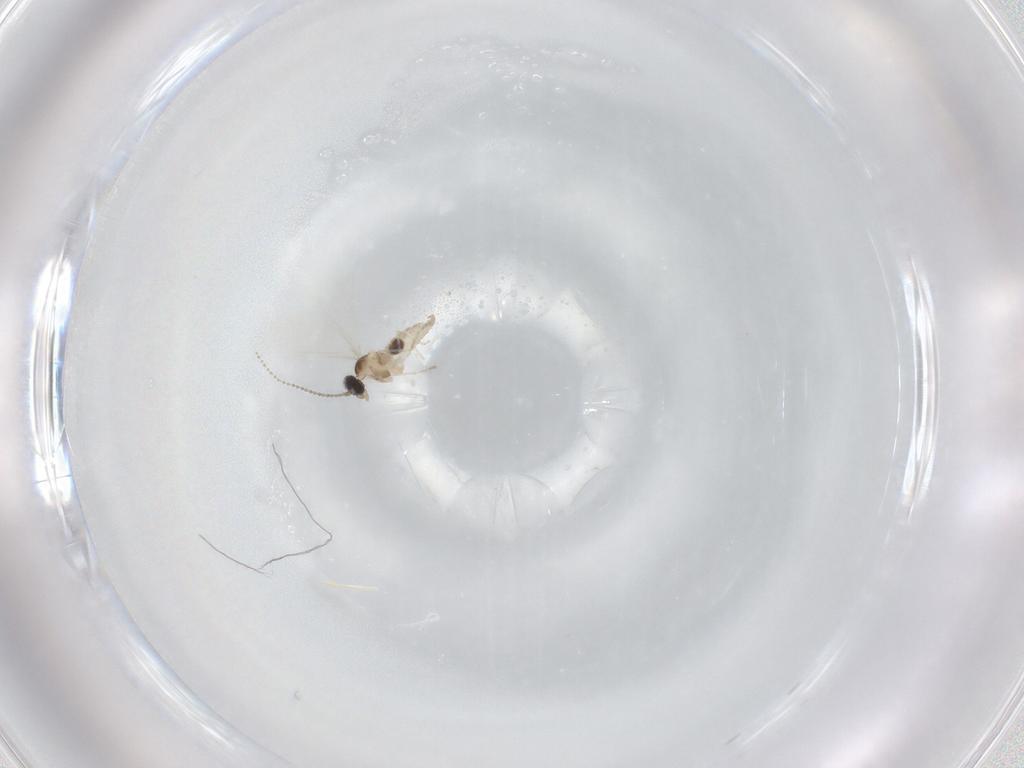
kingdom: Animalia
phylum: Arthropoda
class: Insecta
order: Diptera
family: Cecidomyiidae
